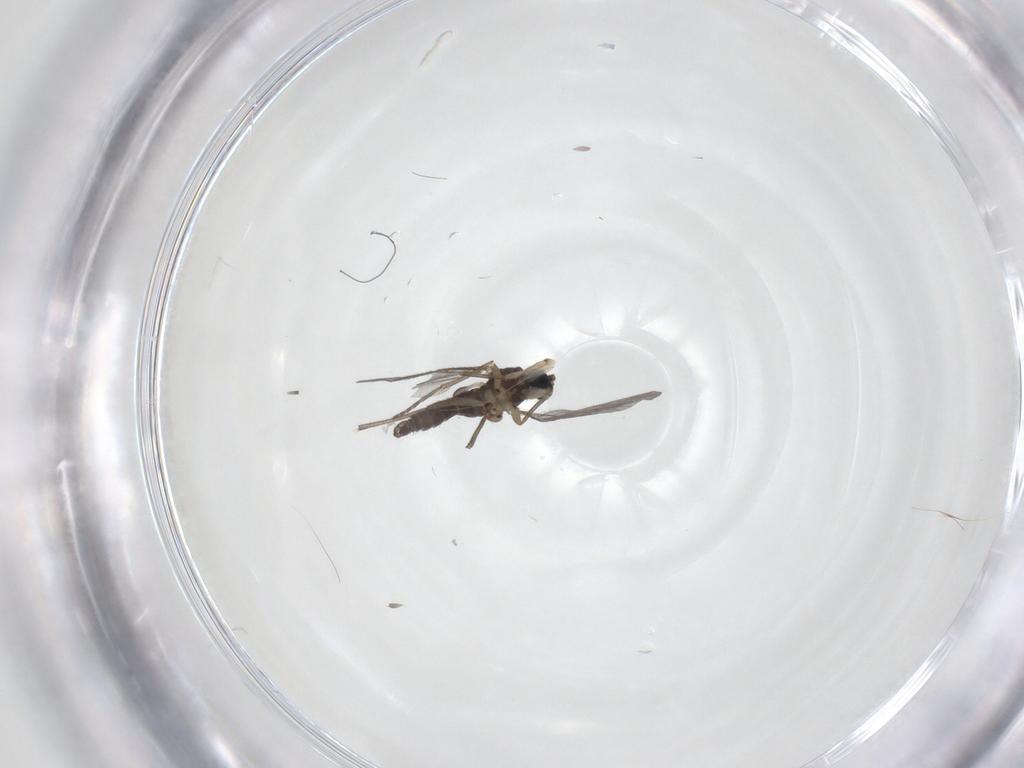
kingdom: Animalia
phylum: Arthropoda
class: Insecta
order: Diptera
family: Sciaridae
